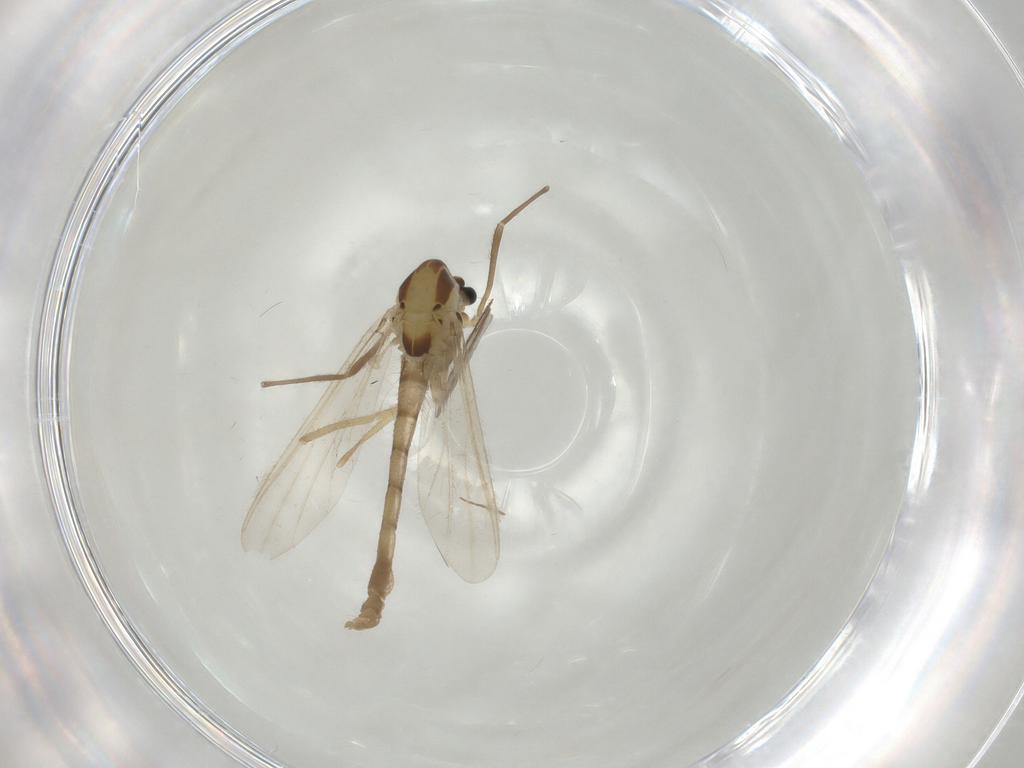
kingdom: Animalia
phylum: Arthropoda
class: Insecta
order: Diptera
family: Chironomidae
